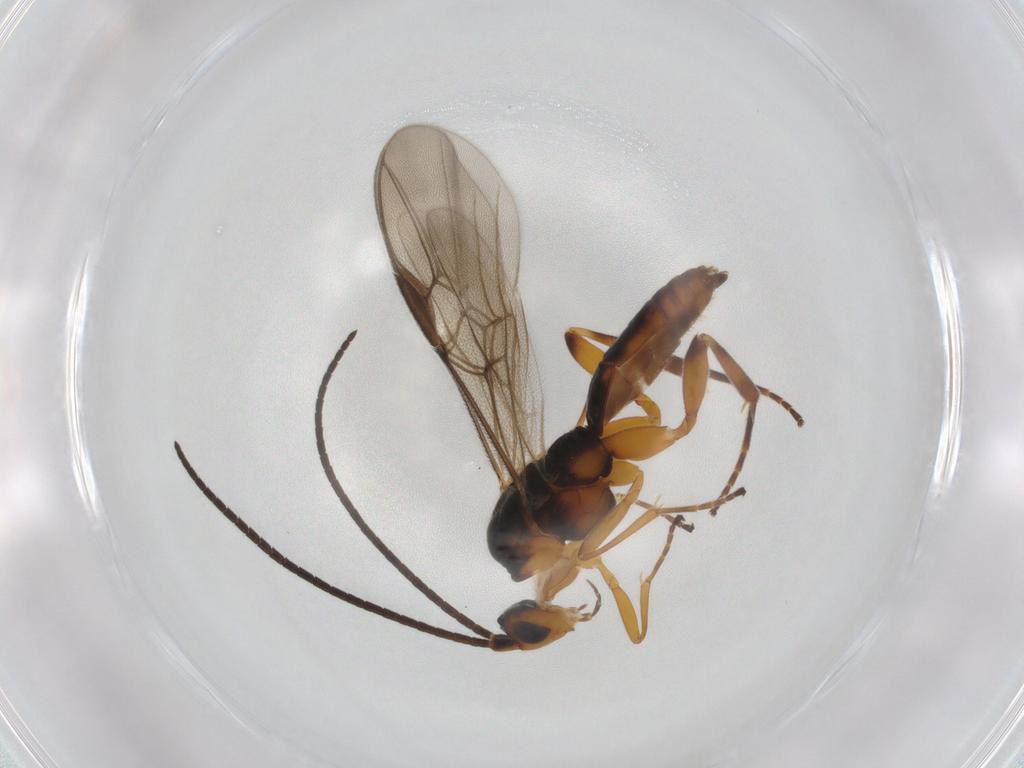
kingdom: Animalia
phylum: Arthropoda
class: Insecta
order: Hymenoptera
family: Braconidae
